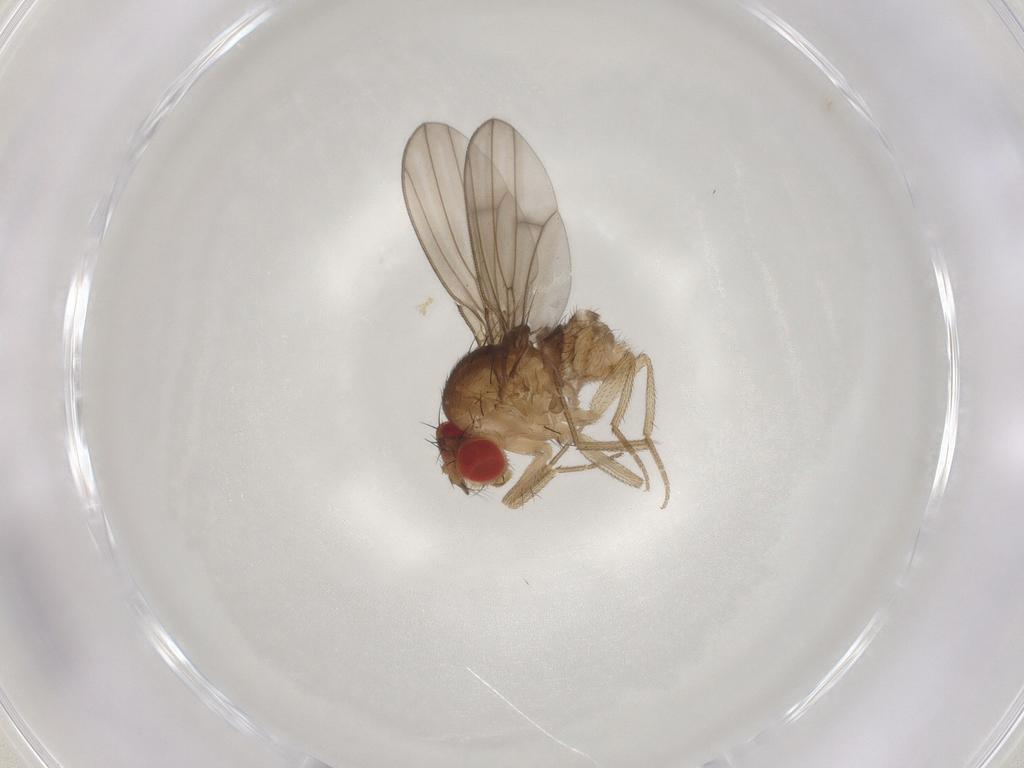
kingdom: Animalia
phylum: Arthropoda
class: Insecta
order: Diptera
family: Drosophilidae
